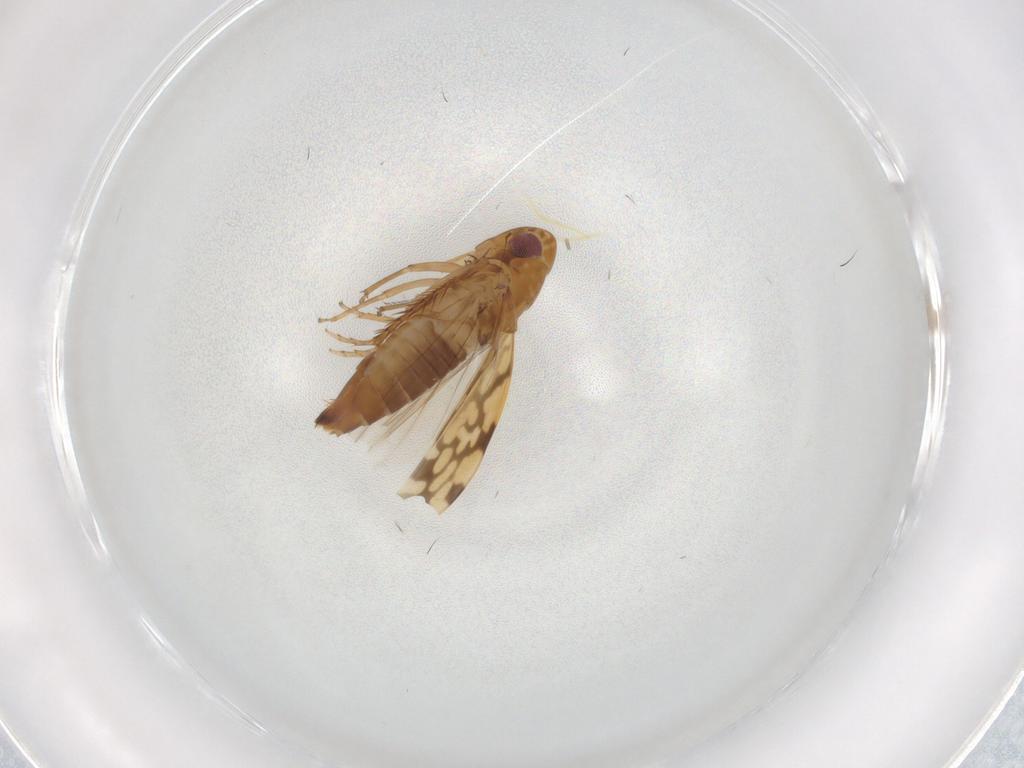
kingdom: Animalia
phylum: Arthropoda
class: Insecta
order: Hemiptera
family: Cicadellidae
